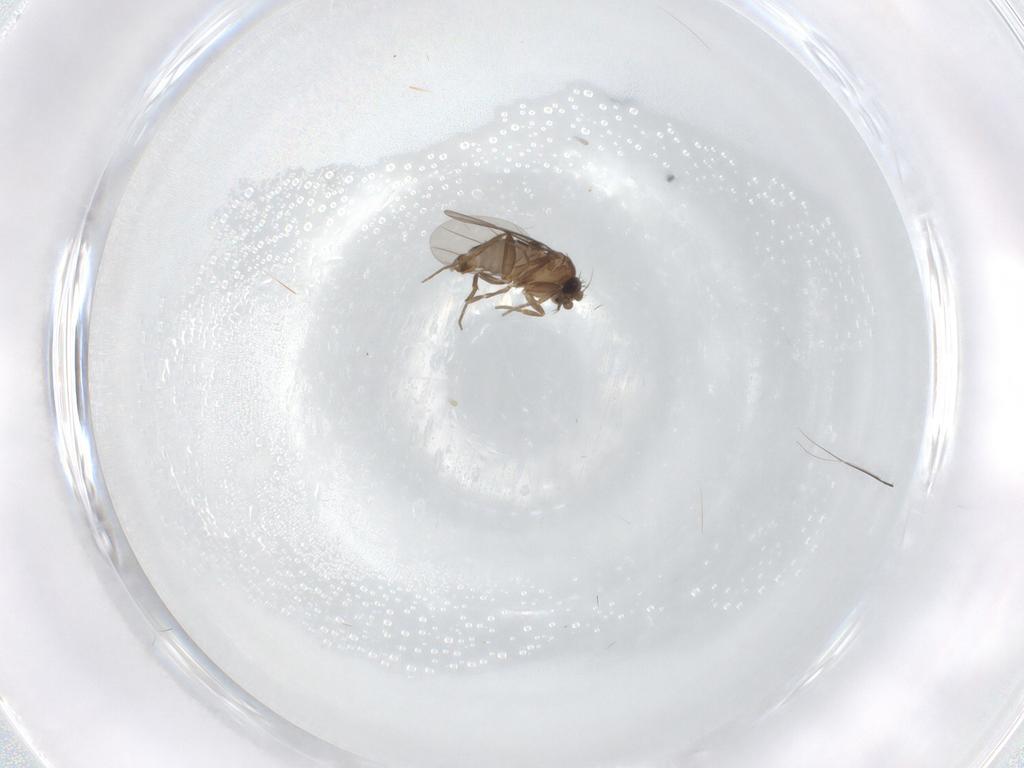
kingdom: Animalia
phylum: Arthropoda
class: Insecta
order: Diptera
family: Phoridae
